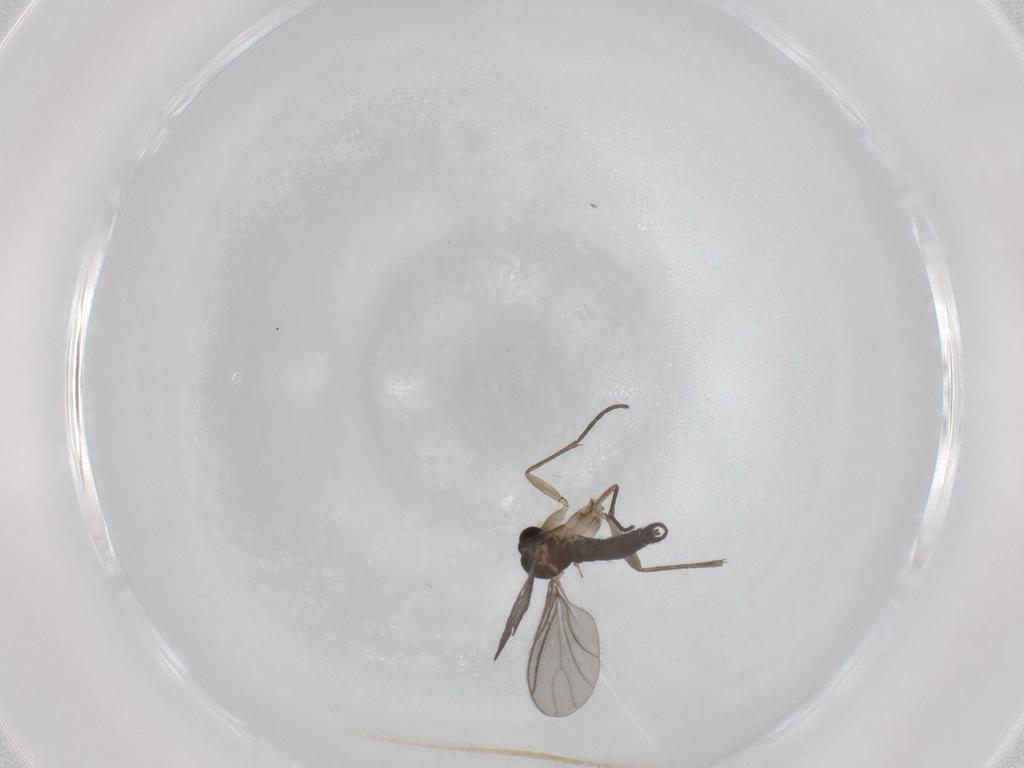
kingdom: Animalia
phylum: Arthropoda
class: Insecta
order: Diptera
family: Sciaridae
